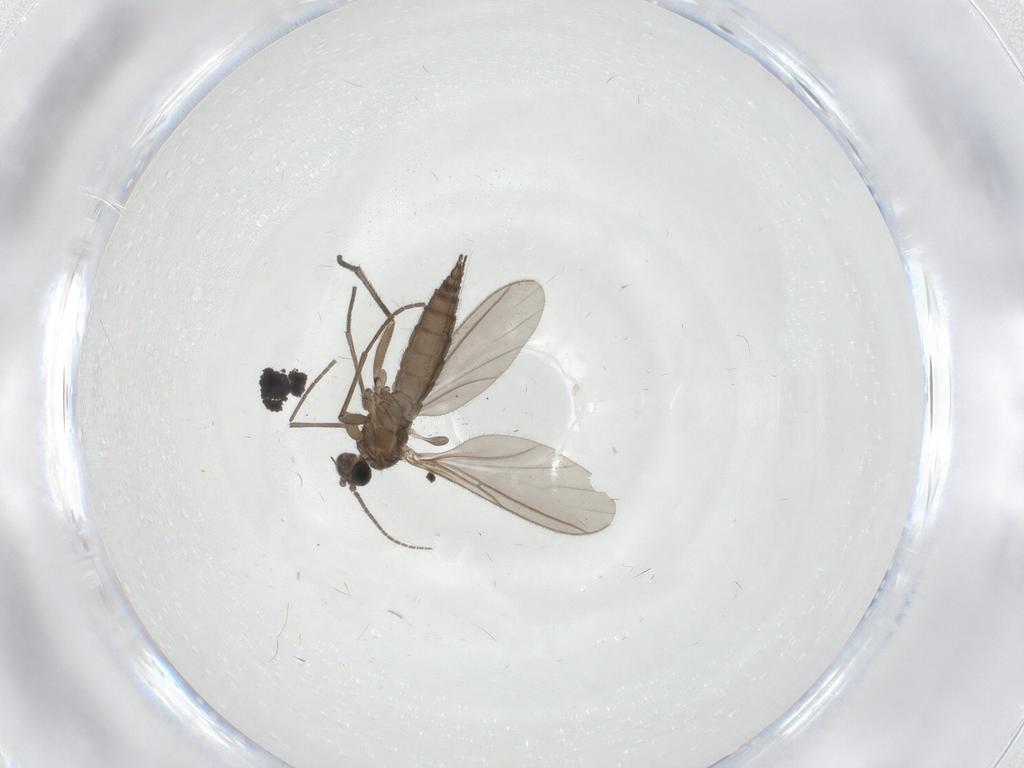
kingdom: Animalia
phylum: Arthropoda
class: Insecta
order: Diptera
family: Sciaridae
